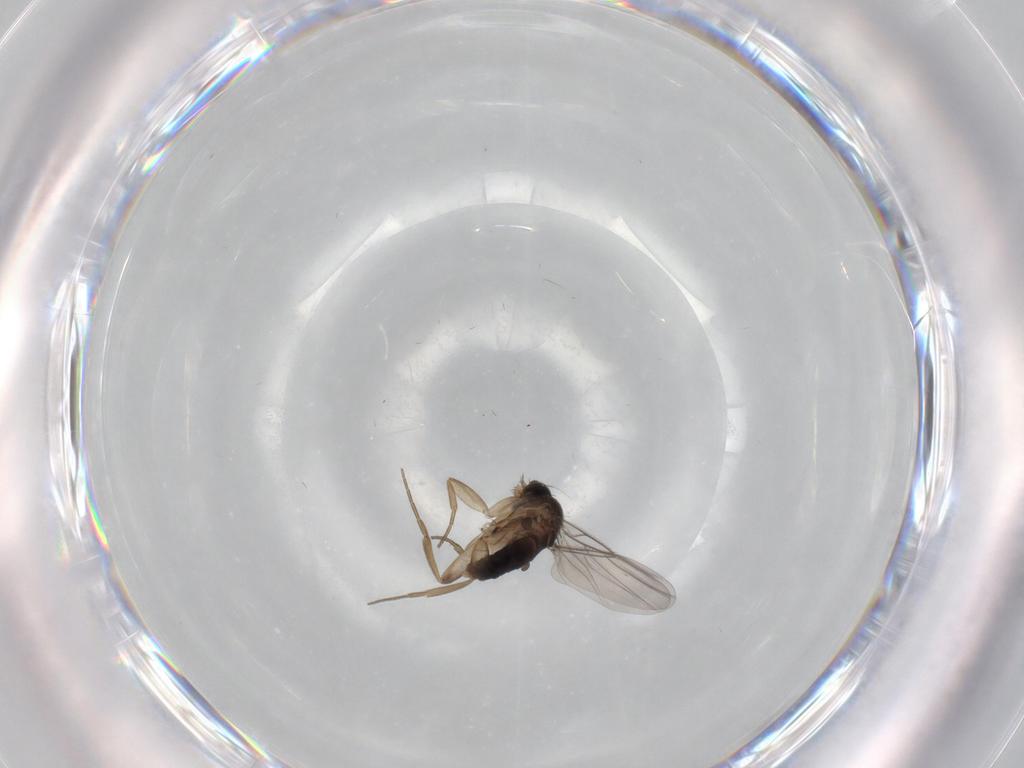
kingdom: Animalia
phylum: Arthropoda
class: Insecta
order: Diptera
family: Phoridae
